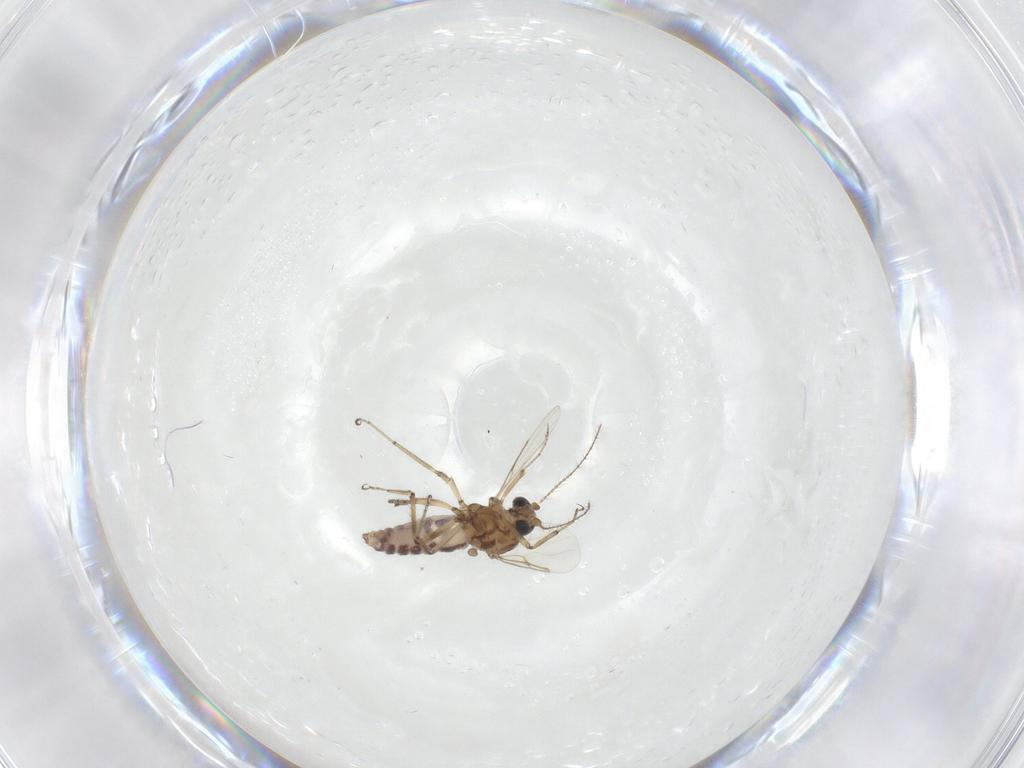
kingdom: Animalia
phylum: Arthropoda
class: Insecta
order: Diptera
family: Ceratopogonidae
